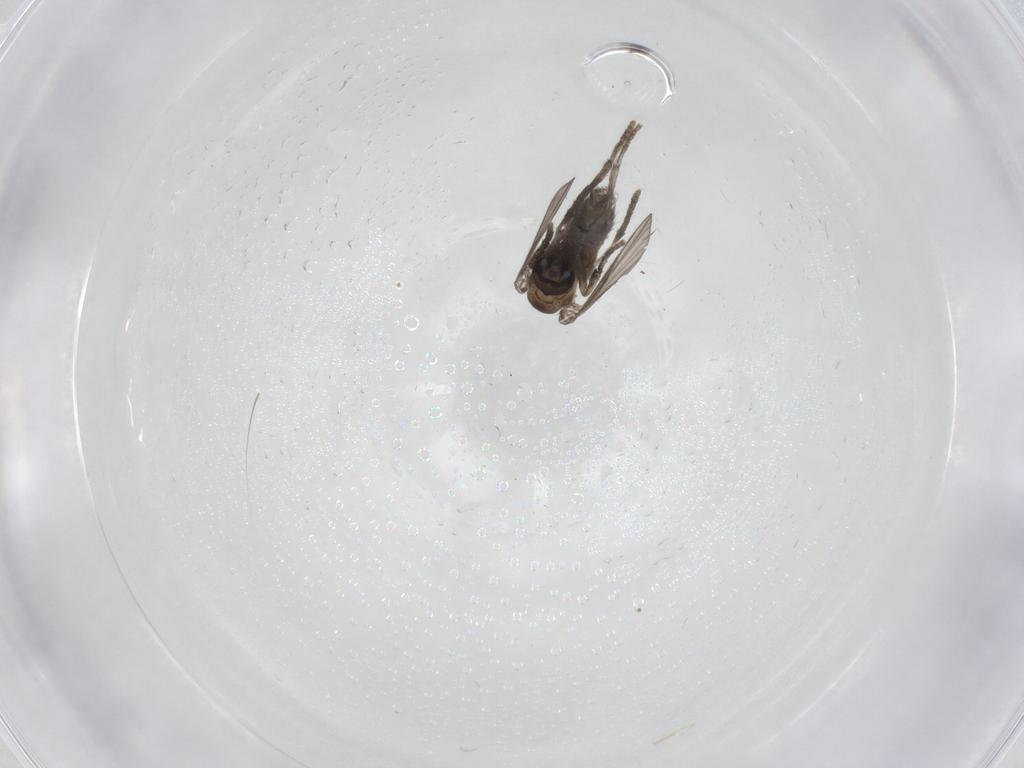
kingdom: Animalia
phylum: Arthropoda
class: Insecta
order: Diptera
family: Psychodidae
